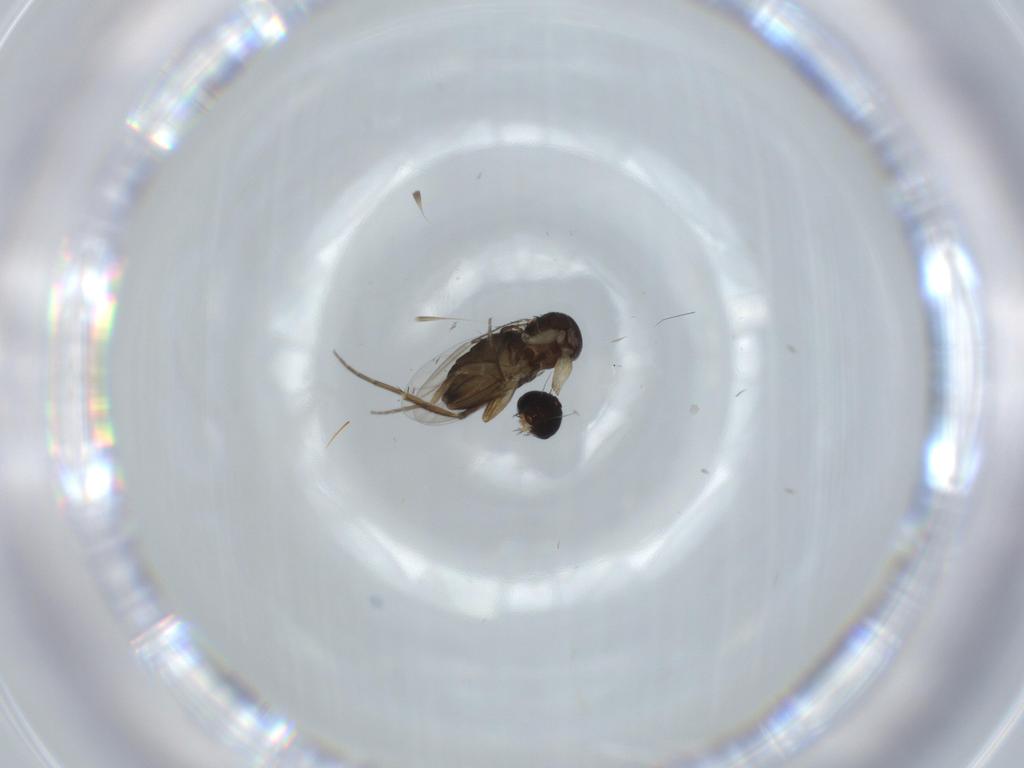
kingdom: Animalia
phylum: Arthropoda
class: Insecta
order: Diptera
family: Phoridae
